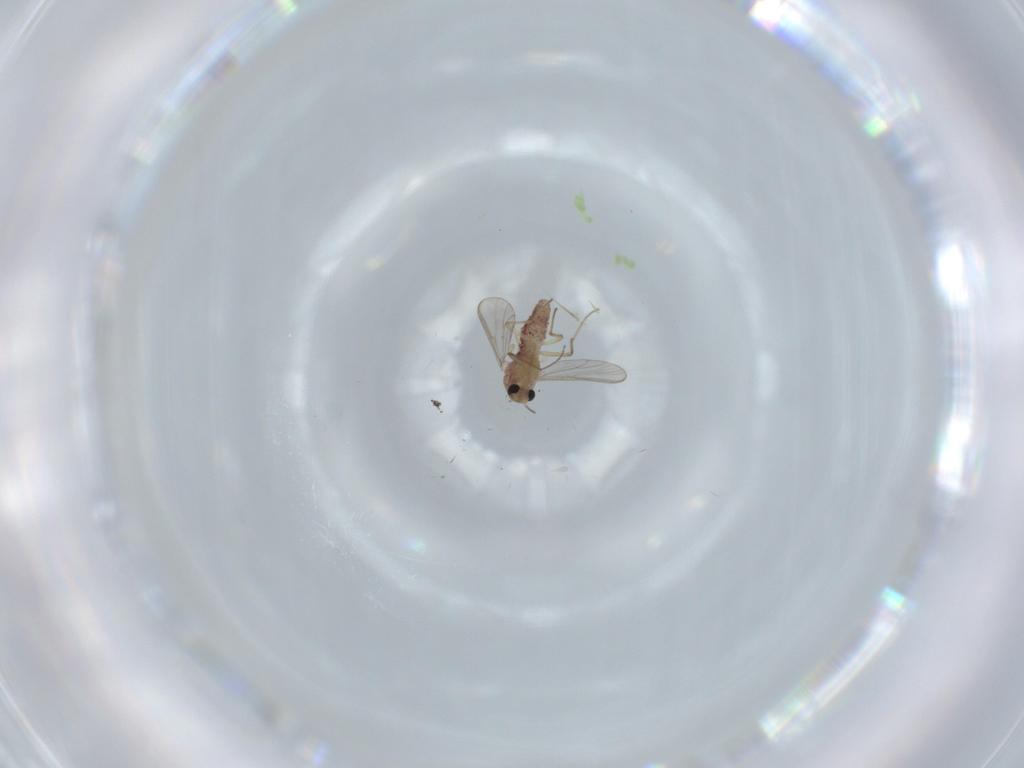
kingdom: Animalia
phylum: Arthropoda
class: Insecta
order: Diptera
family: Chironomidae
